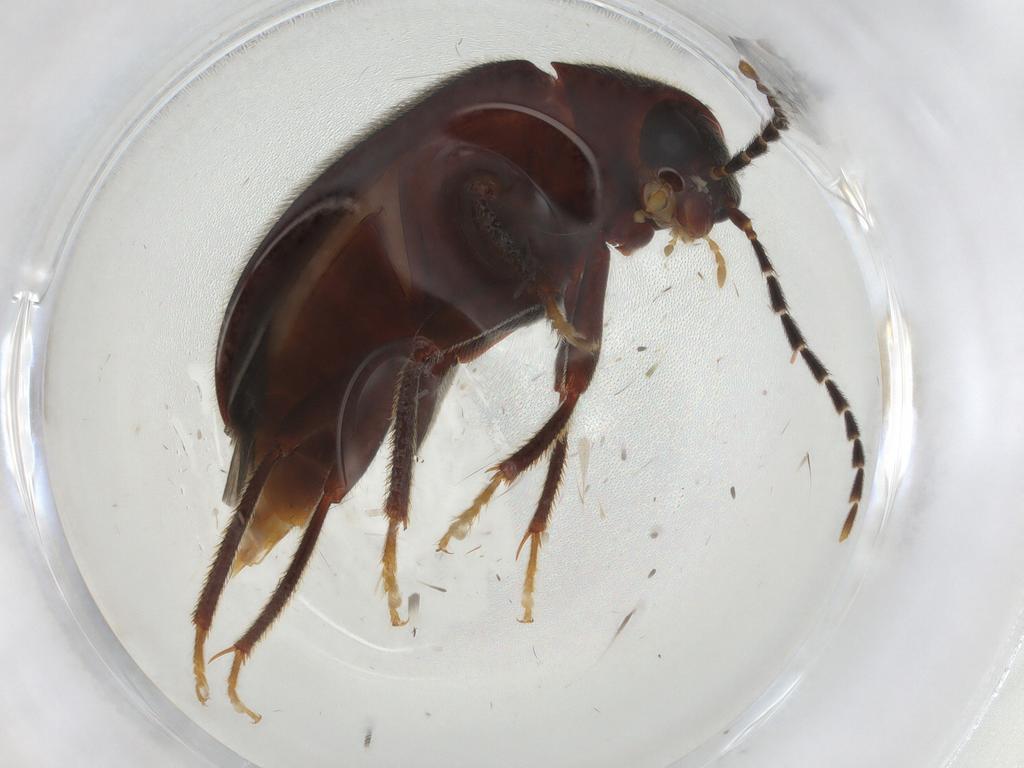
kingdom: Animalia
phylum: Arthropoda
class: Insecta
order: Coleoptera
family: Ptilodactylidae
